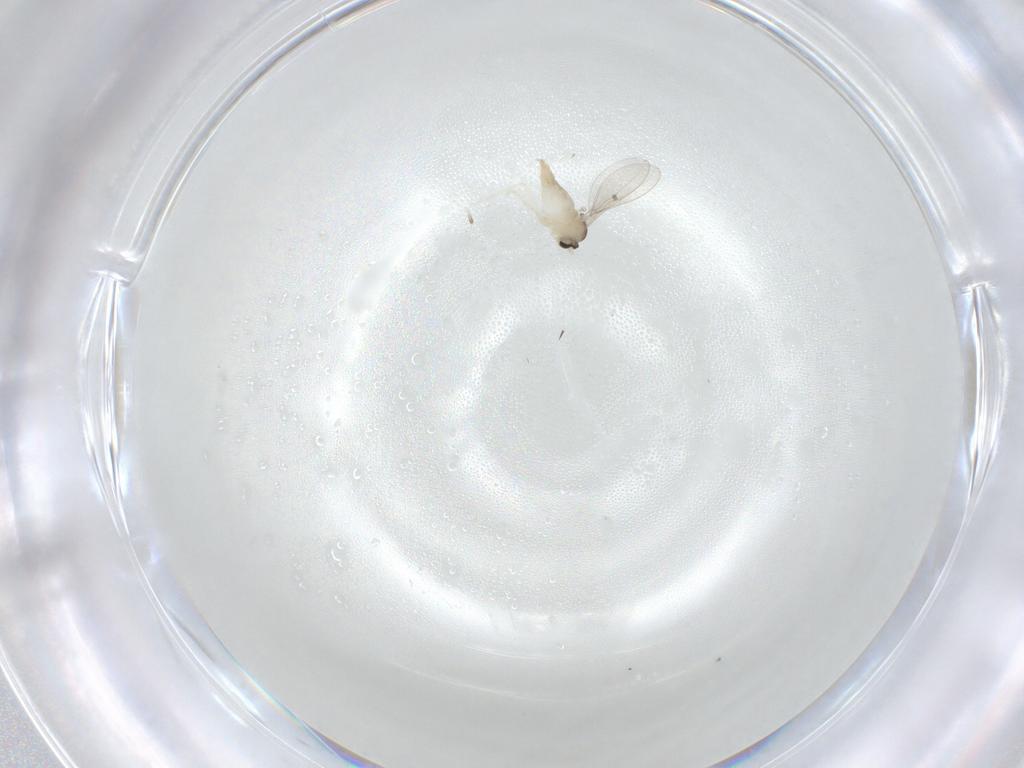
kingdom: Animalia
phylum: Arthropoda
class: Insecta
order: Diptera
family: Cecidomyiidae
